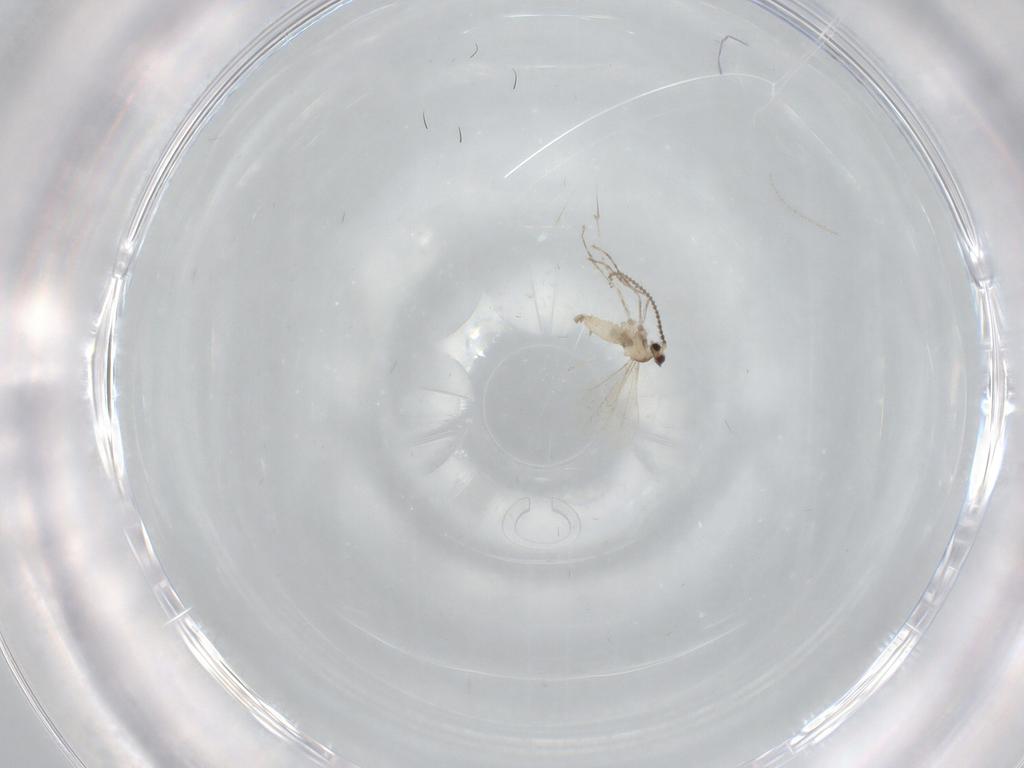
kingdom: Animalia
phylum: Arthropoda
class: Insecta
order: Diptera
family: Cecidomyiidae
